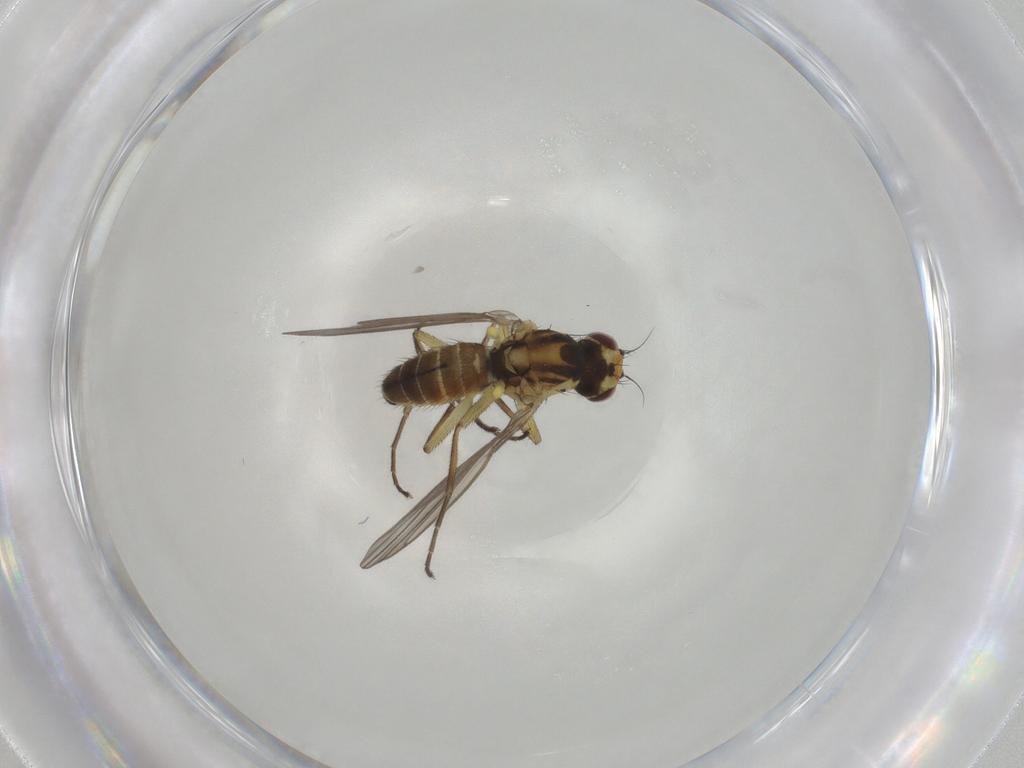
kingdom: Animalia
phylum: Arthropoda
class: Insecta
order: Diptera
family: Agromyzidae
